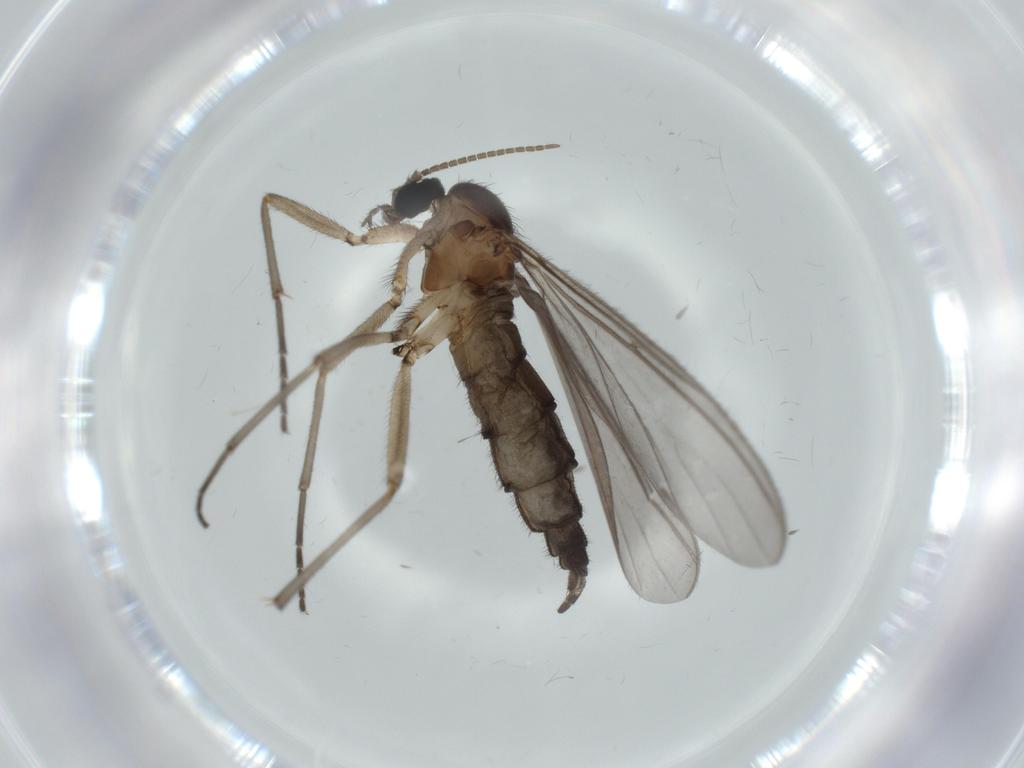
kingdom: Animalia
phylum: Arthropoda
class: Insecta
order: Diptera
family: Sciaridae
